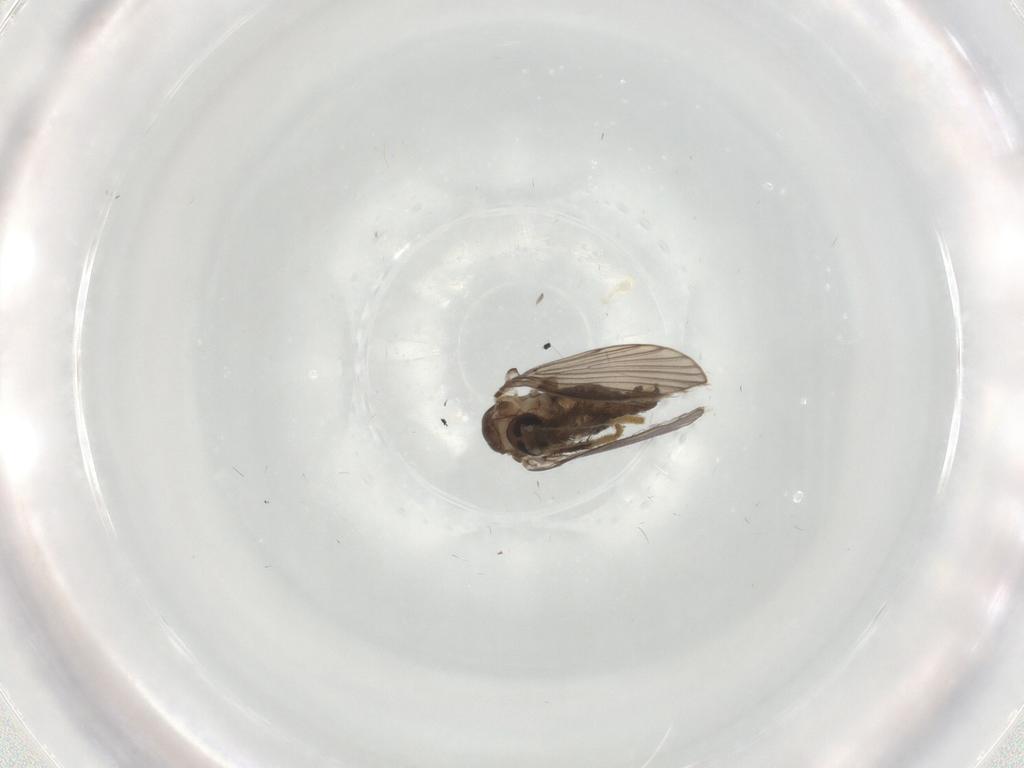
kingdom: Animalia
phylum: Arthropoda
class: Insecta
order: Diptera
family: Psychodidae
